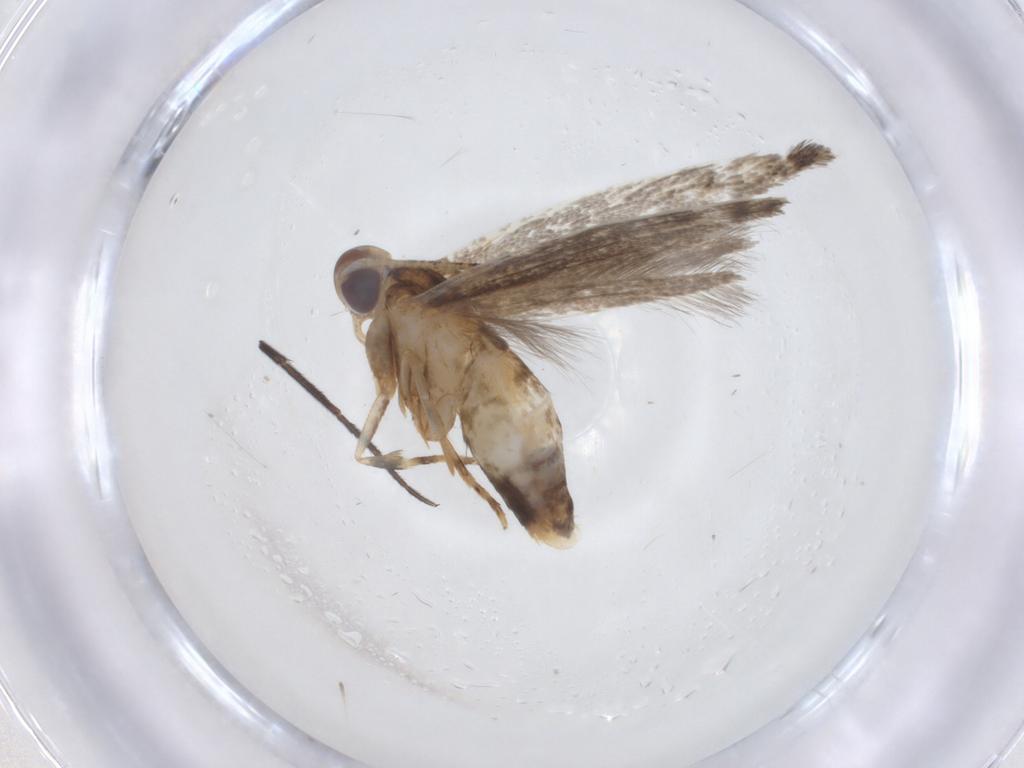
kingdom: Animalia
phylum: Arthropoda
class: Insecta
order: Lepidoptera
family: Cosmopterigidae
